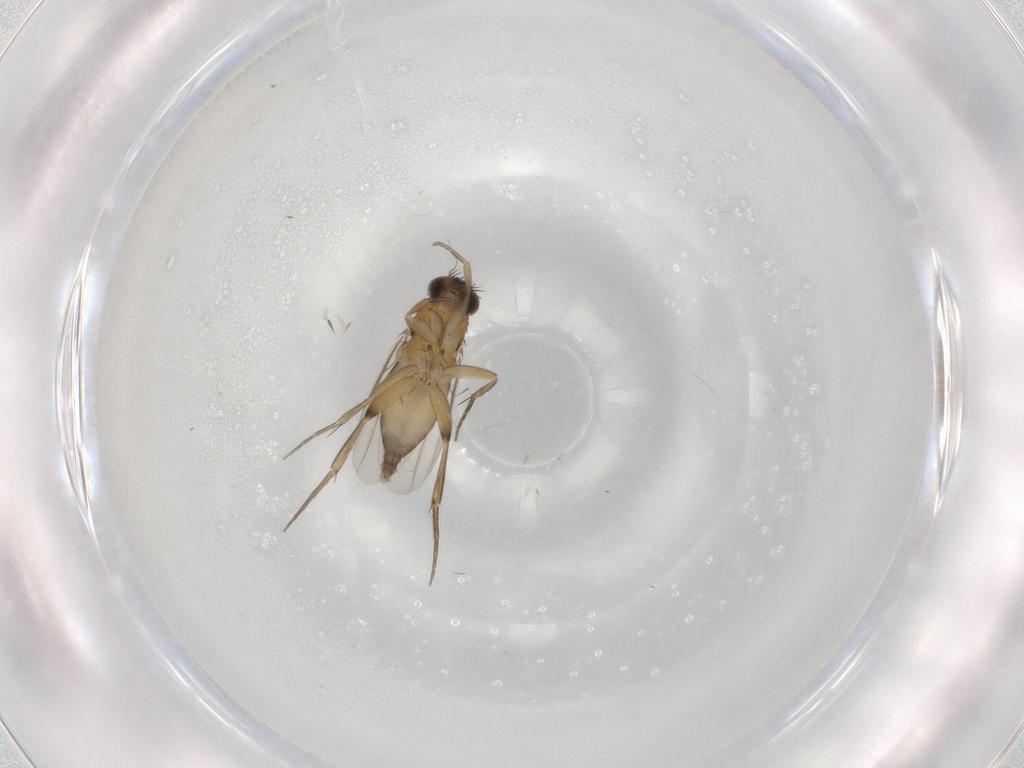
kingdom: Animalia
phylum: Arthropoda
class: Insecta
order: Diptera
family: Phoridae
